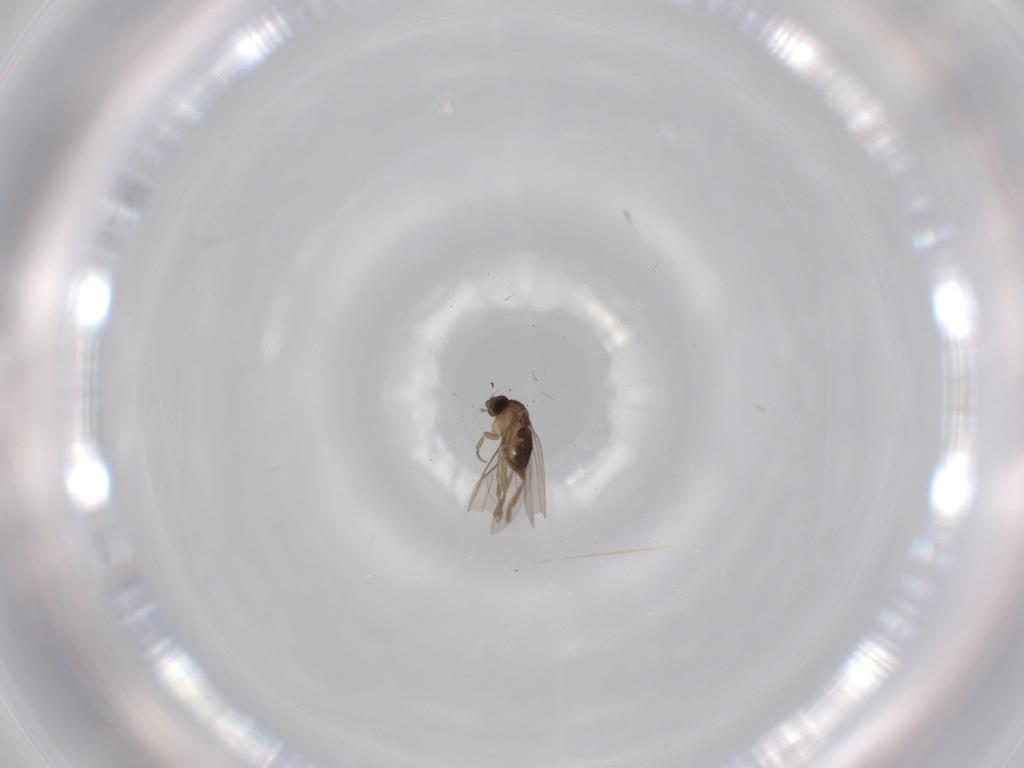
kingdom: Animalia
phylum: Arthropoda
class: Insecta
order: Diptera
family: Phoridae
